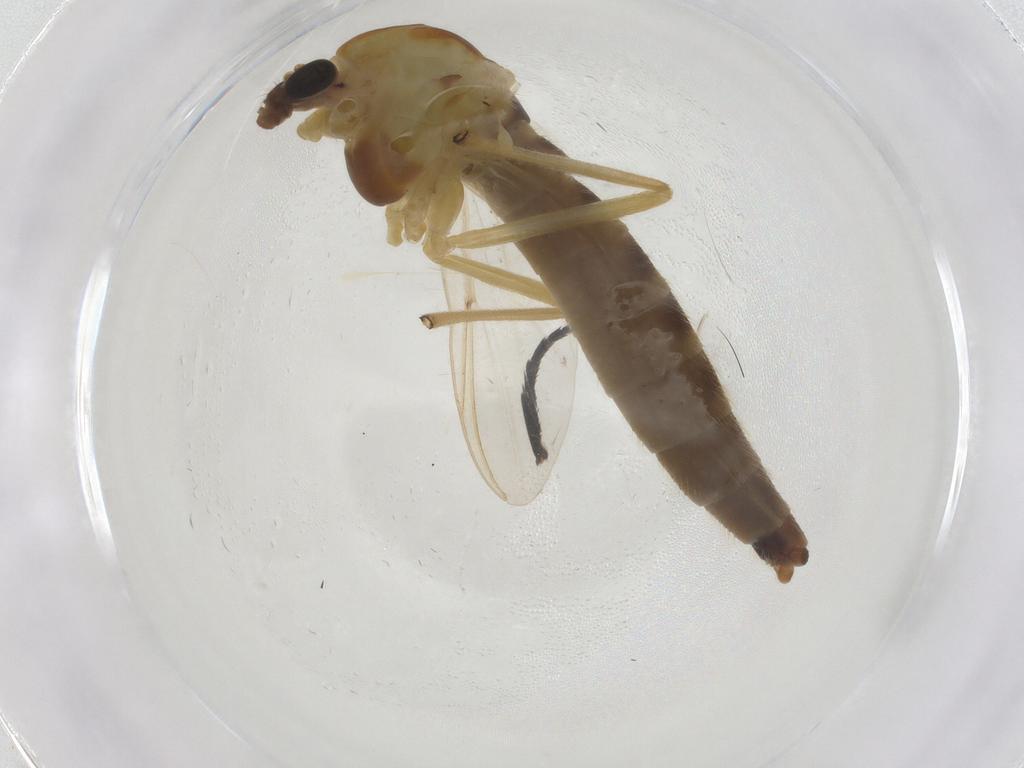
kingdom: Animalia
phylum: Arthropoda
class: Insecta
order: Diptera
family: Chironomidae
